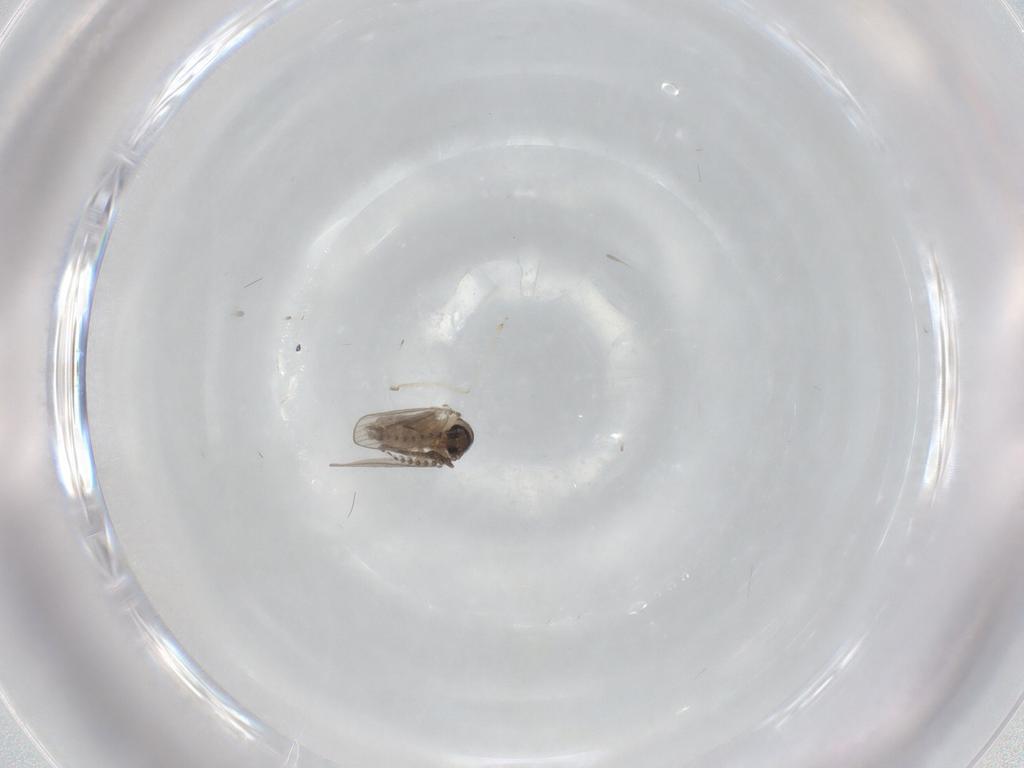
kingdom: Animalia
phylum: Arthropoda
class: Insecta
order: Diptera
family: Psychodidae
